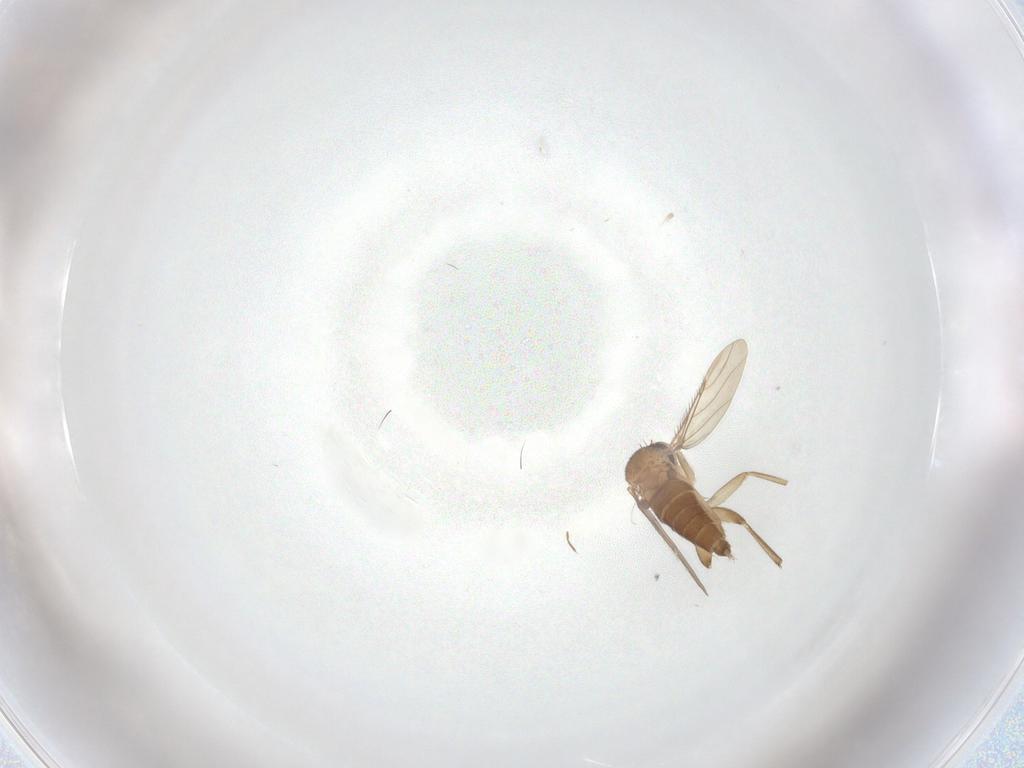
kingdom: Animalia
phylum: Arthropoda
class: Insecta
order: Diptera
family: Phoridae
